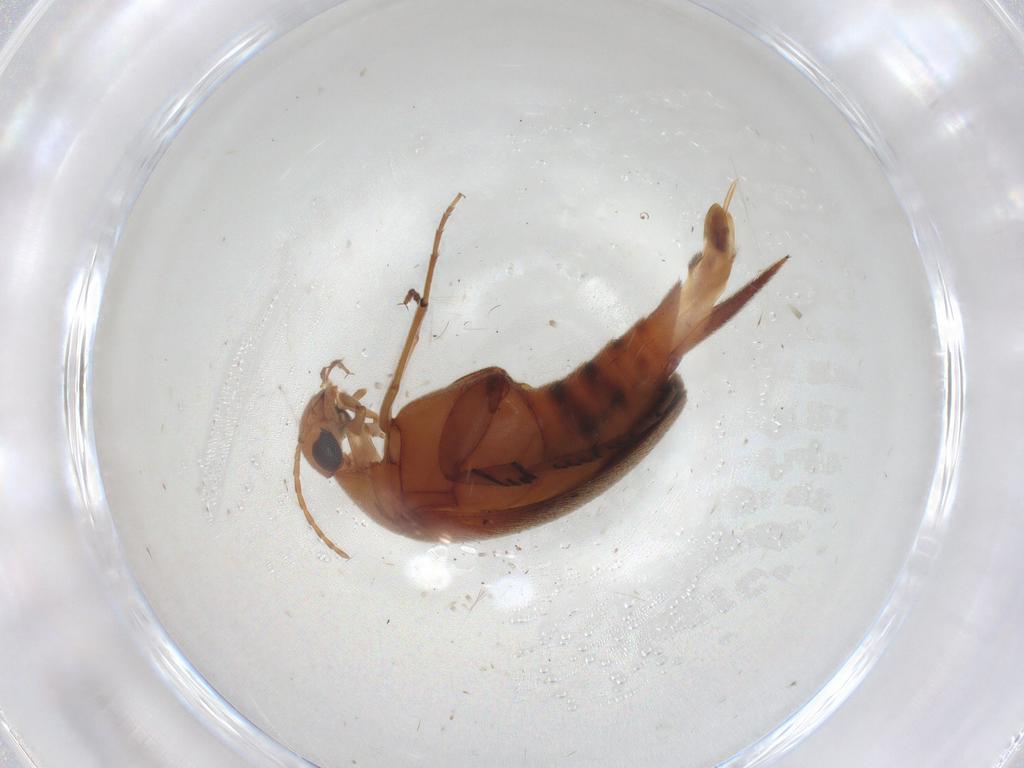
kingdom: Animalia
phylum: Arthropoda
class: Insecta
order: Coleoptera
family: Latridiidae
